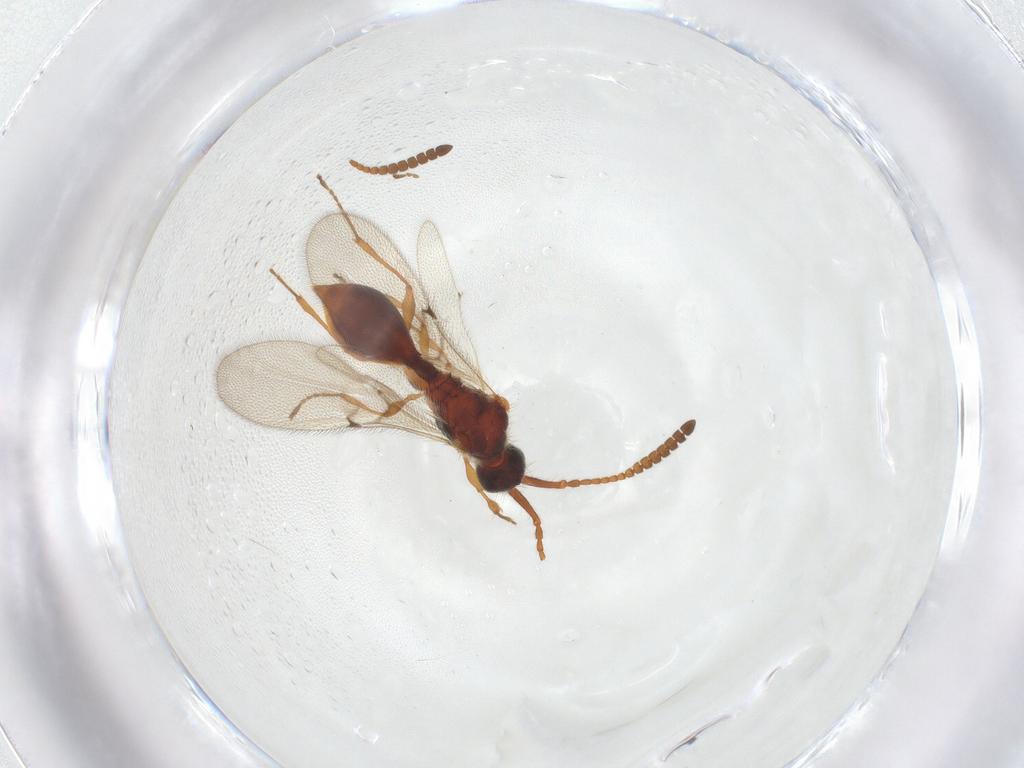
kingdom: Animalia
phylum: Arthropoda
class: Insecta
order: Hymenoptera
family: Diapriidae
